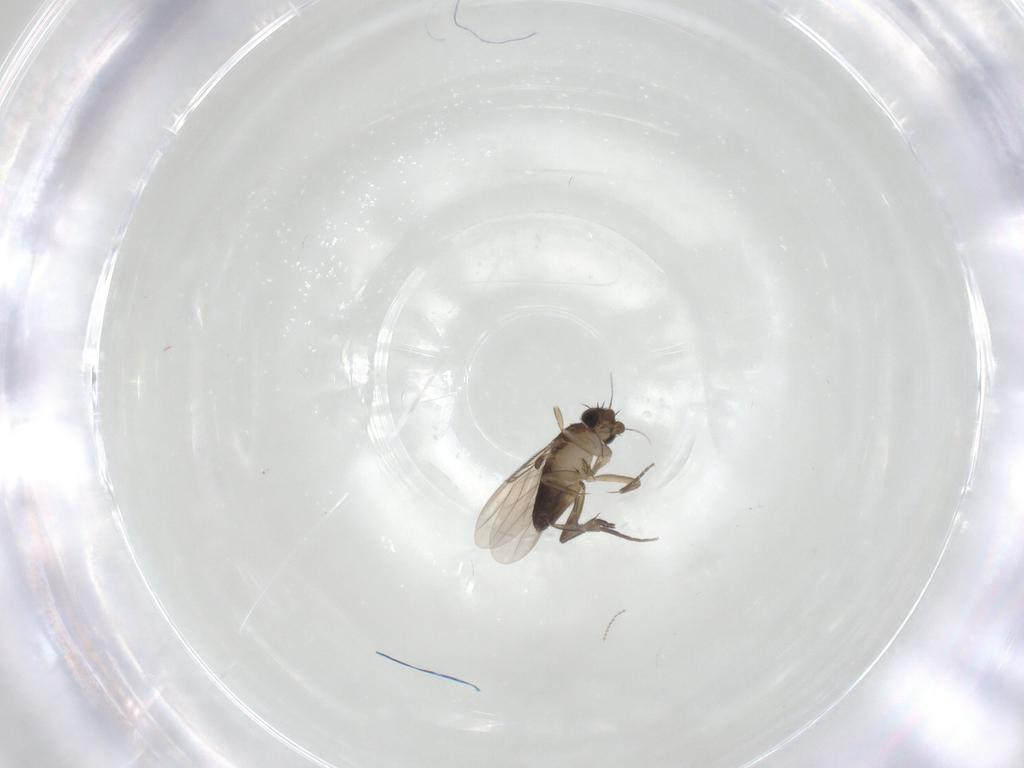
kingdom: Animalia
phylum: Arthropoda
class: Insecta
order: Diptera
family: Phoridae
